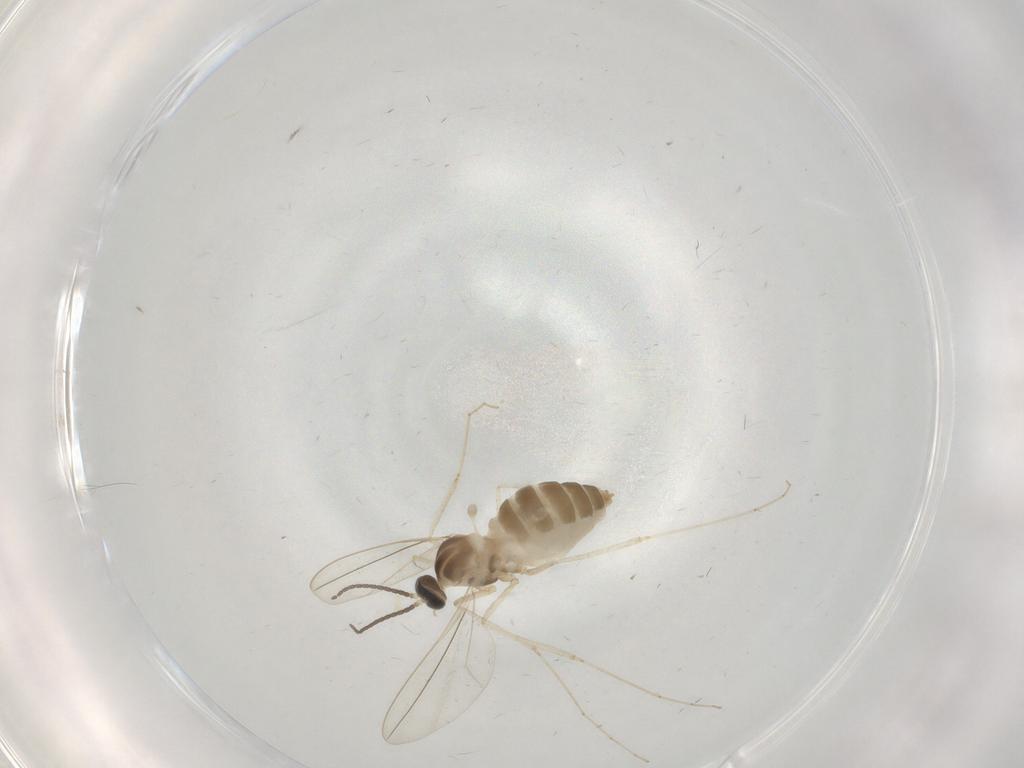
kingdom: Animalia
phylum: Arthropoda
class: Insecta
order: Diptera
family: Cecidomyiidae
